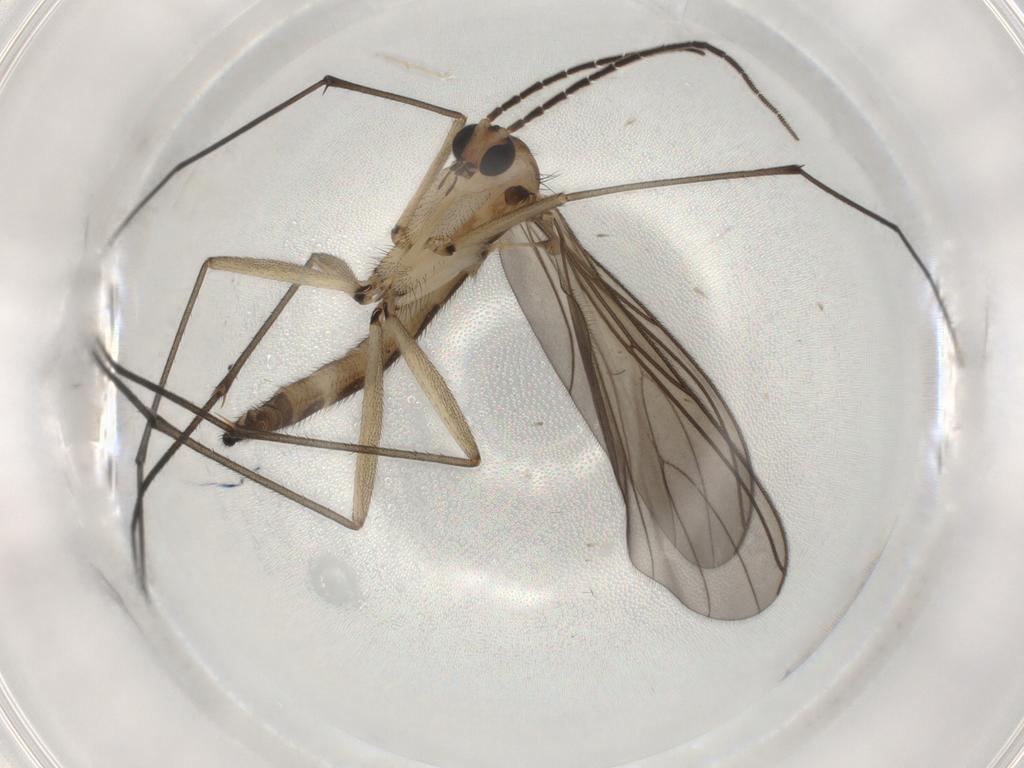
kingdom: Animalia
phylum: Arthropoda
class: Insecta
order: Diptera
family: Sciaridae
